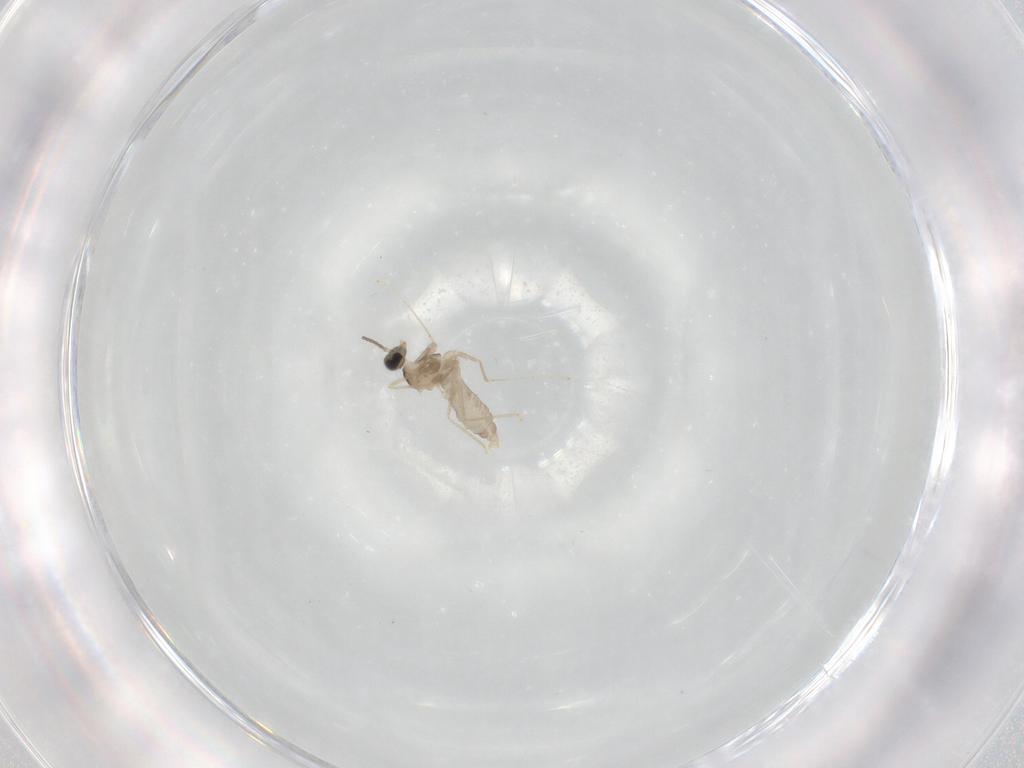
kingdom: Animalia
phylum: Arthropoda
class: Insecta
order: Diptera
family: Cecidomyiidae
